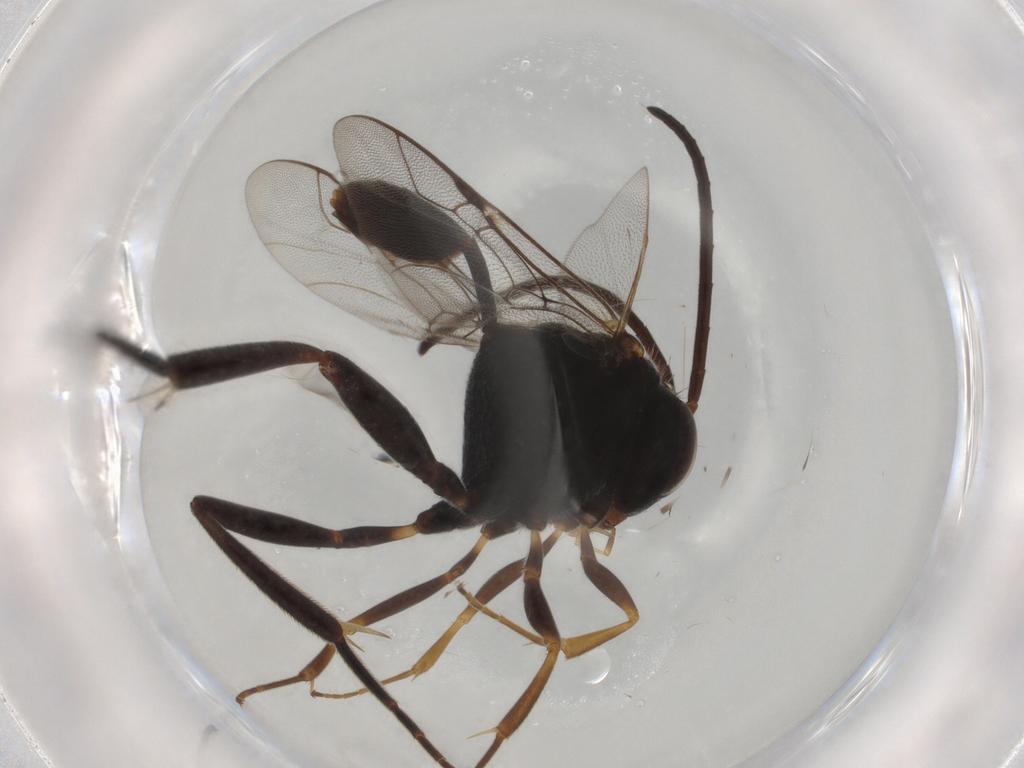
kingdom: Animalia
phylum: Arthropoda
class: Insecta
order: Hymenoptera
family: Evaniidae
